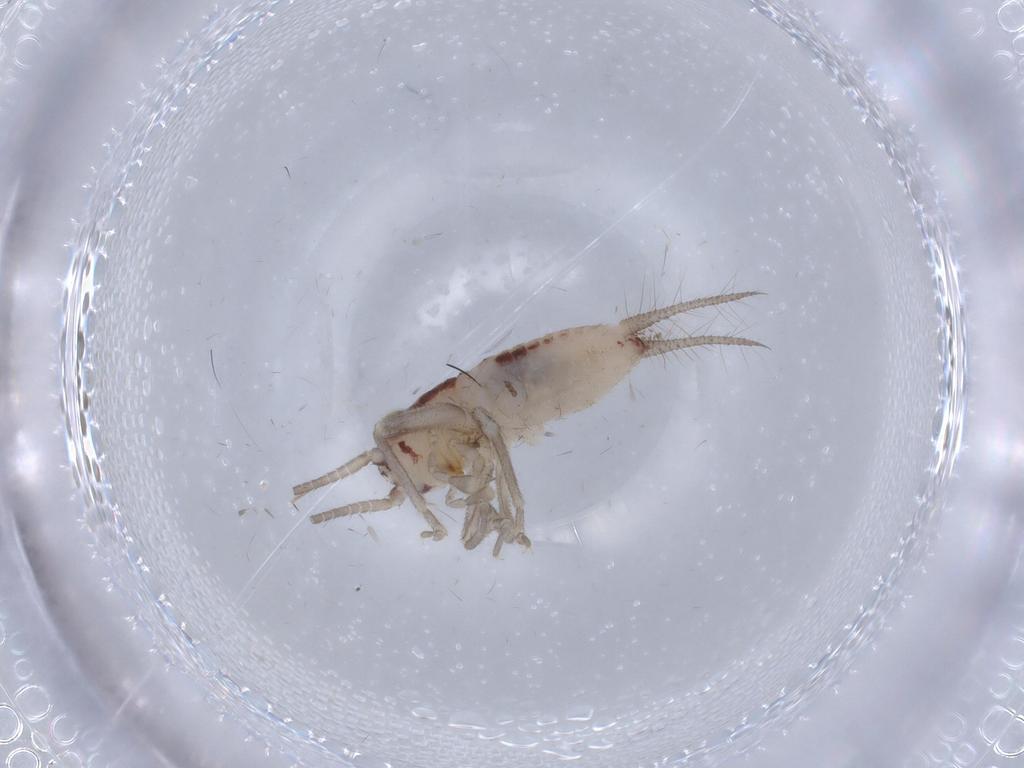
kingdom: Animalia
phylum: Arthropoda
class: Insecta
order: Orthoptera
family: Trigonidiidae
